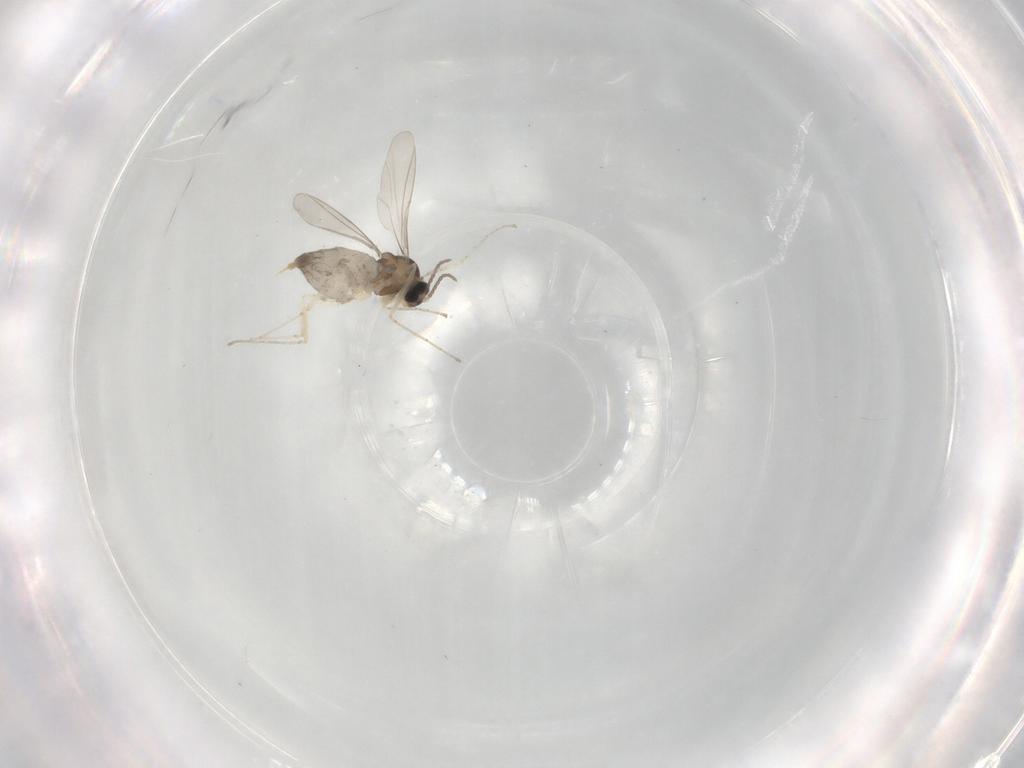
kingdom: Animalia
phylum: Arthropoda
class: Insecta
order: Diptera
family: Cecidomyiidae
